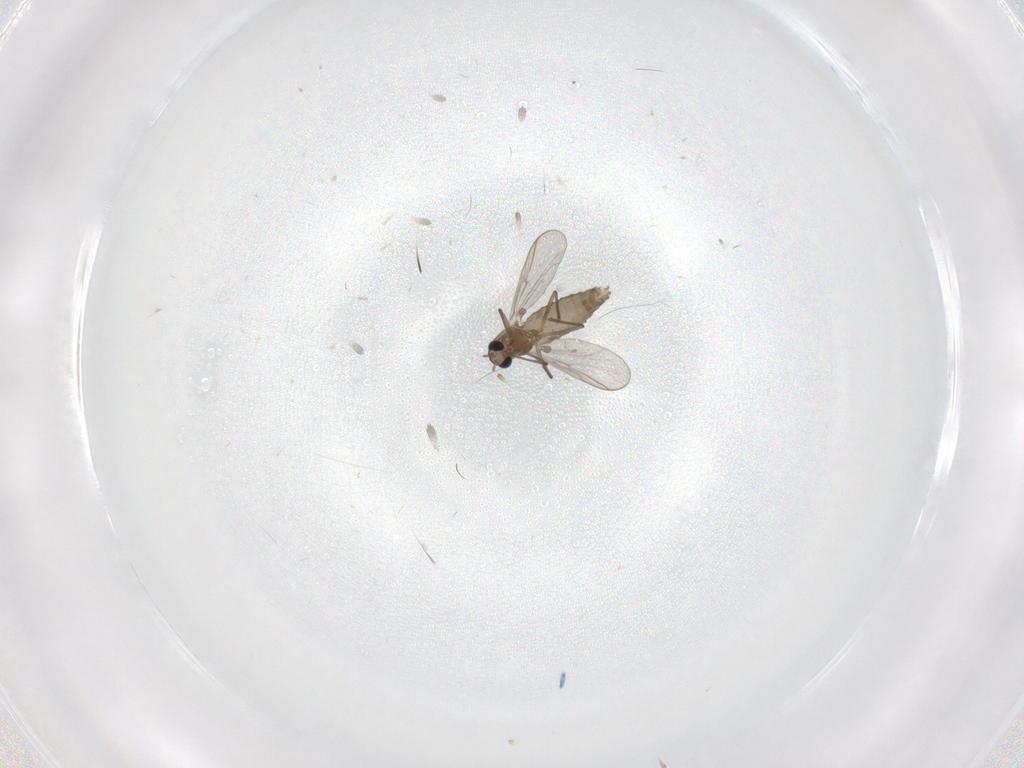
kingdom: Animalia
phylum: Arthropoda
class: Insecta
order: Diptera
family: Chironomidae
